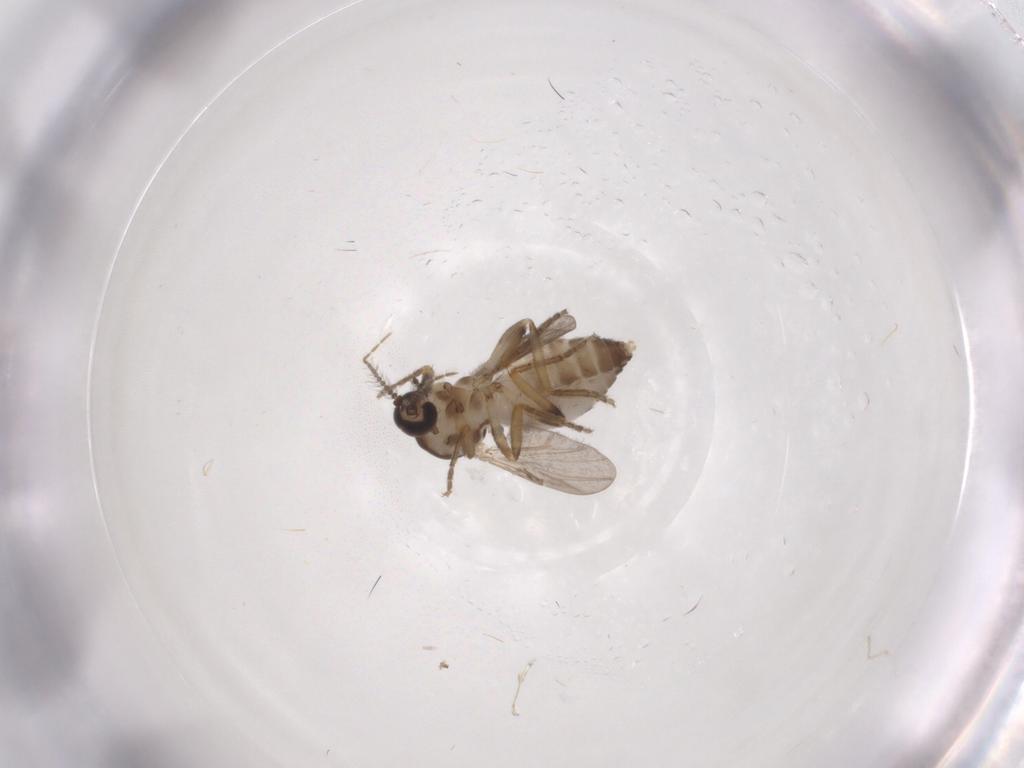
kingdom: Animalia
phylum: Arthropoda
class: Insecta
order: Diptera
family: Ceratopogonidae
